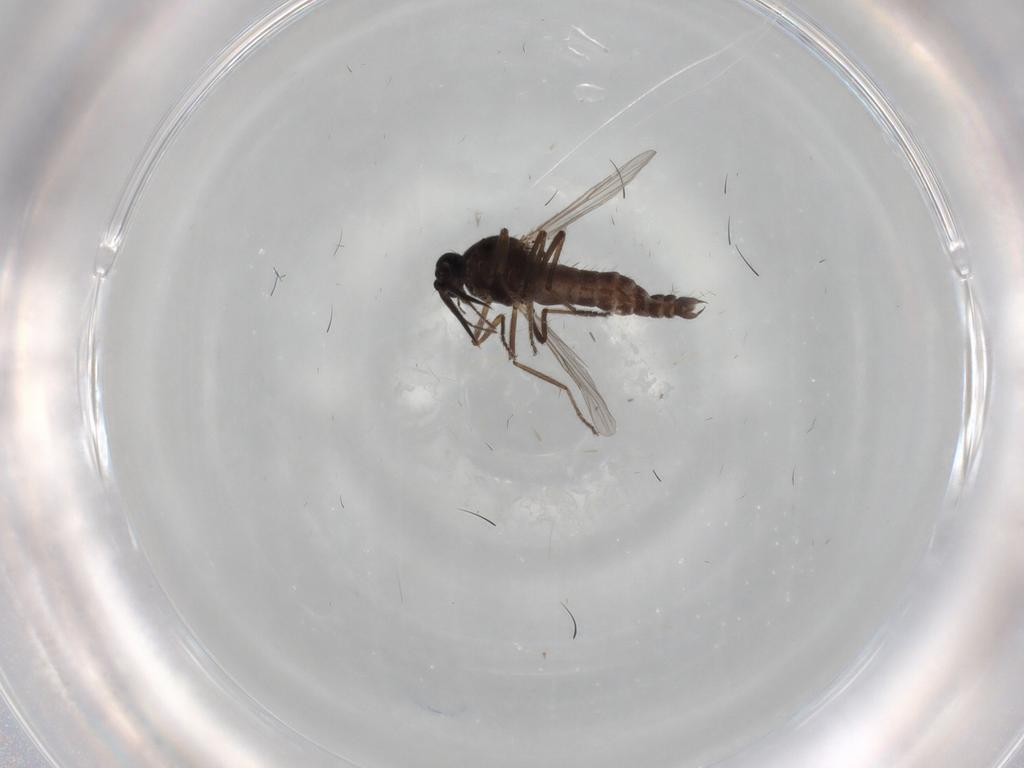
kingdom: Animalia
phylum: Arthropoda
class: Insecta
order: Diptera
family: Ceratopogonidae
